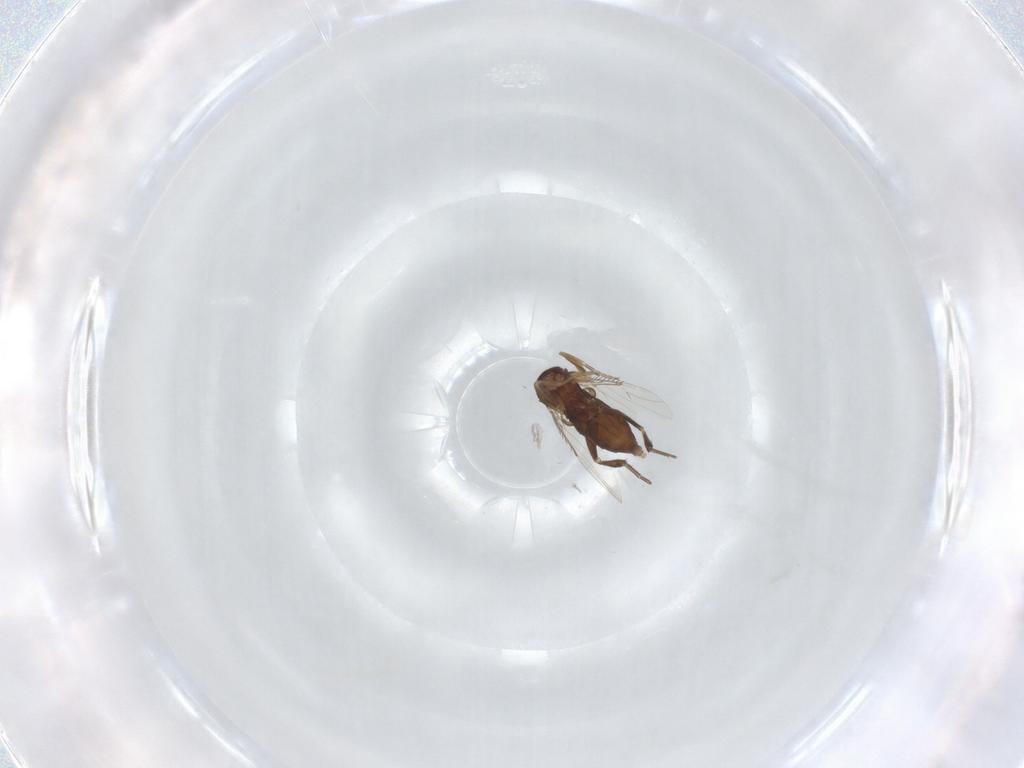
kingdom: Animalia
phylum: Arthropoda
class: Insecta
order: Diptera
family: Phoridae
